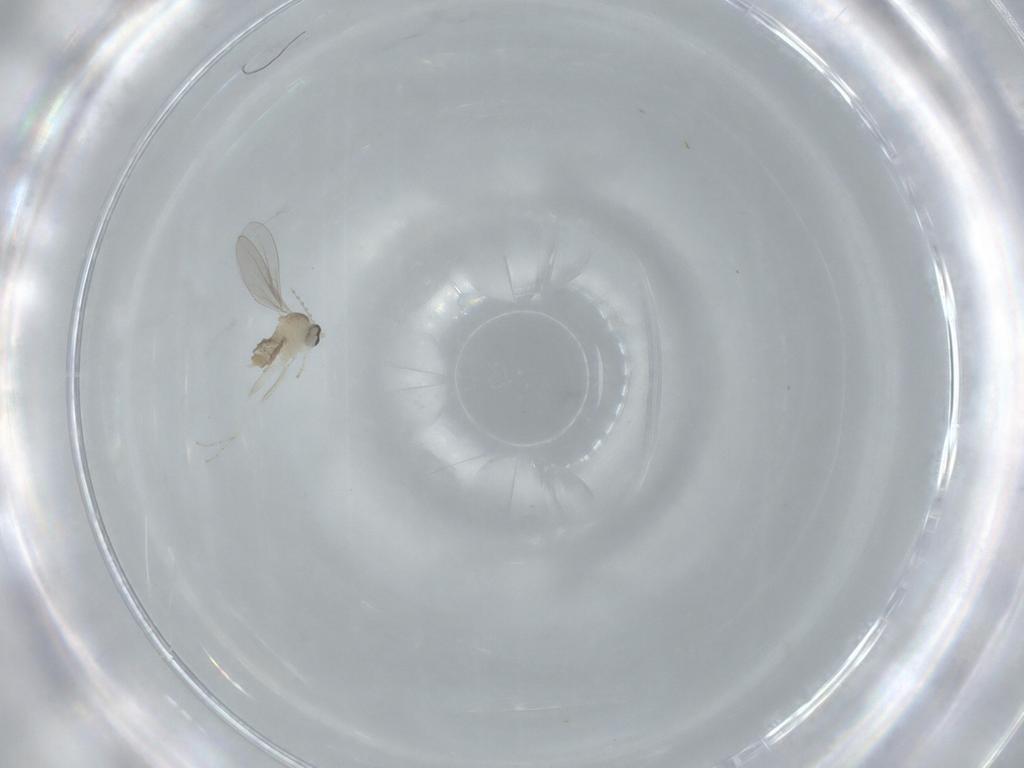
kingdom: Animalia
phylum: Arthropoda
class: Insecta
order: Diptera
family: Cecidomyiidae
